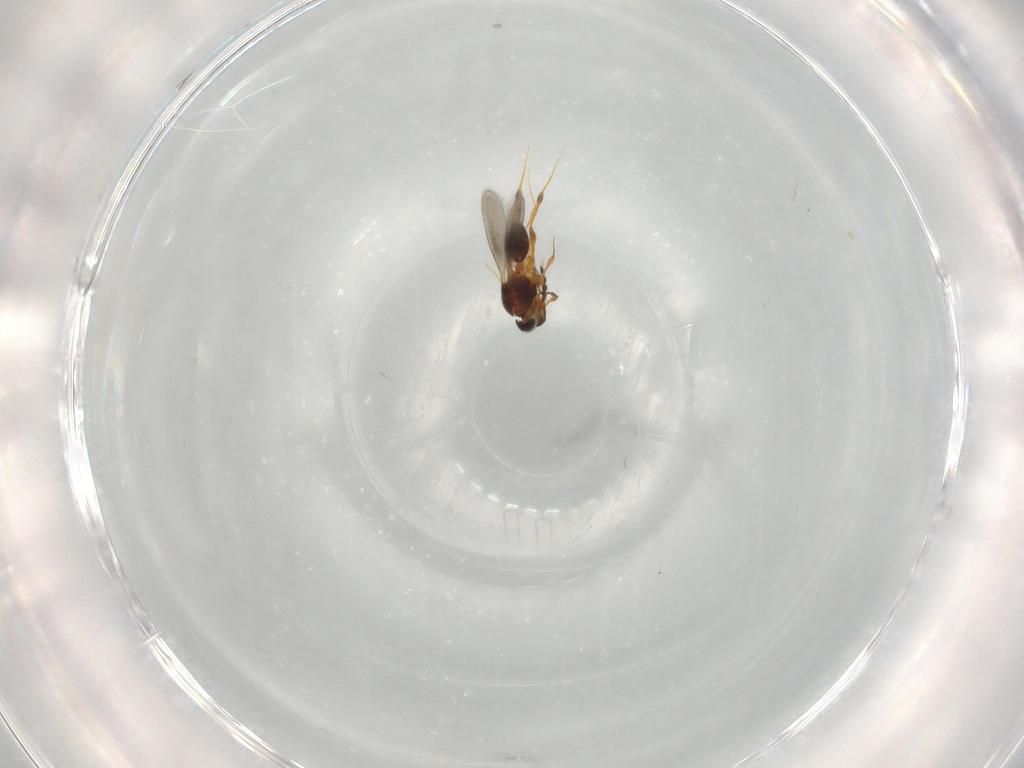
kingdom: Animalia
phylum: Arthropoda
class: Insecta
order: Hymenoptera
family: Platygastridae
